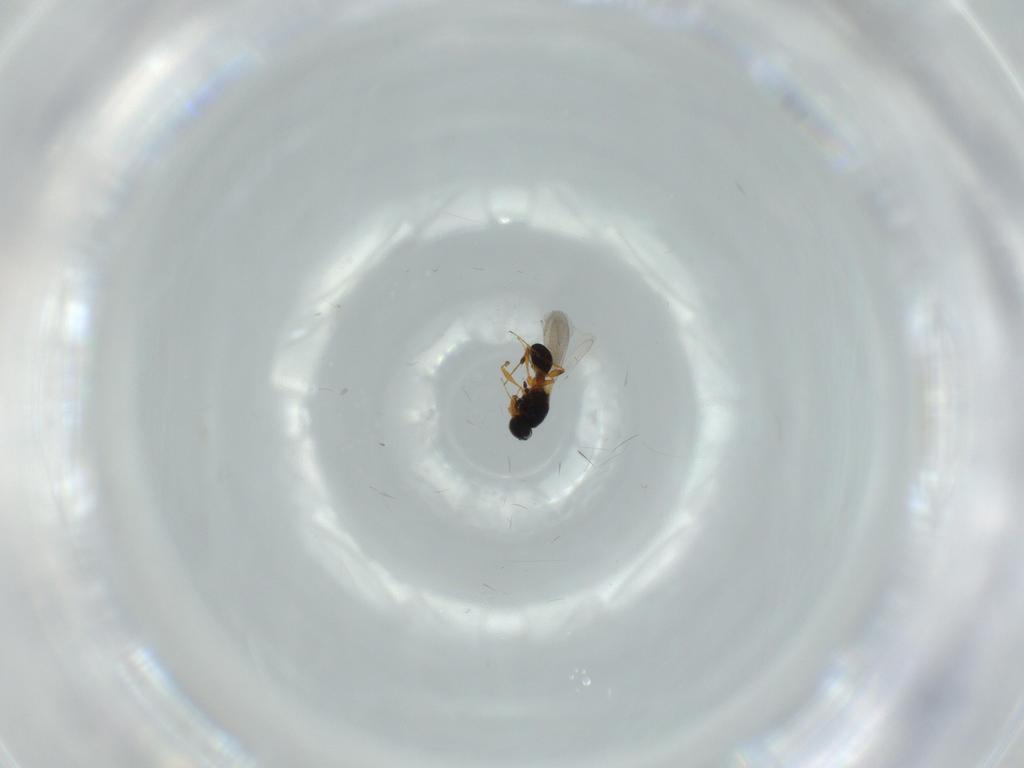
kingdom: Animalia
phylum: Arthropoda
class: Insecta
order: Hymenoptera
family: Platygastridae
